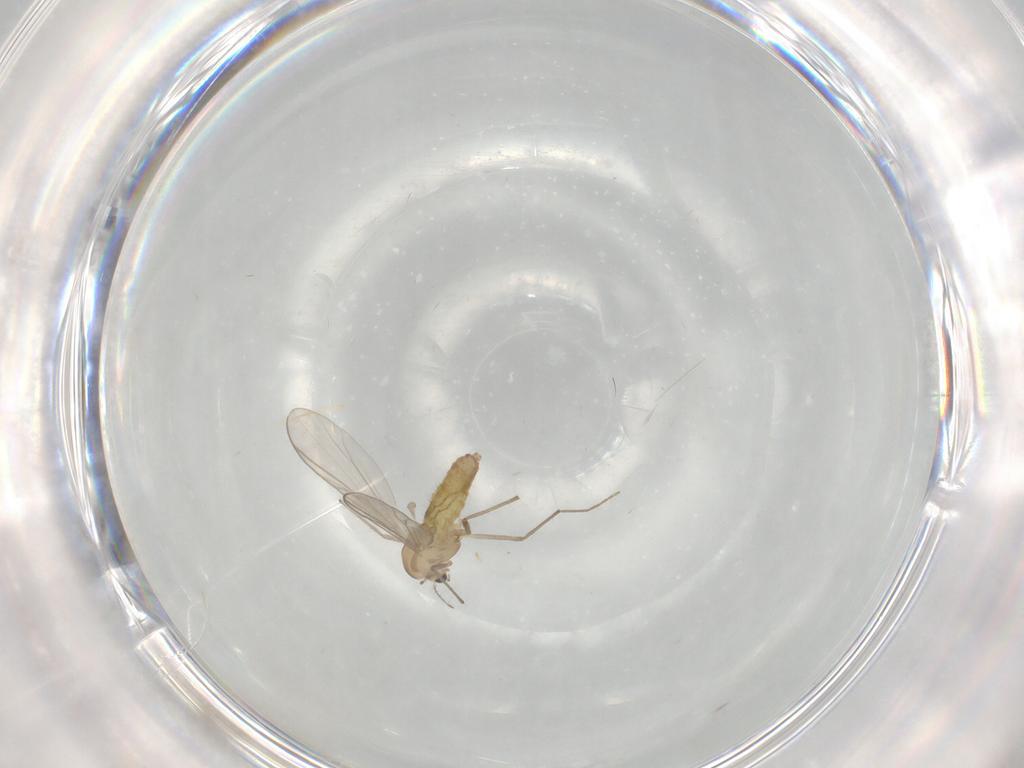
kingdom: Animalia
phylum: Arthropoda
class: Insecta
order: Diptera
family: Chironomidae
